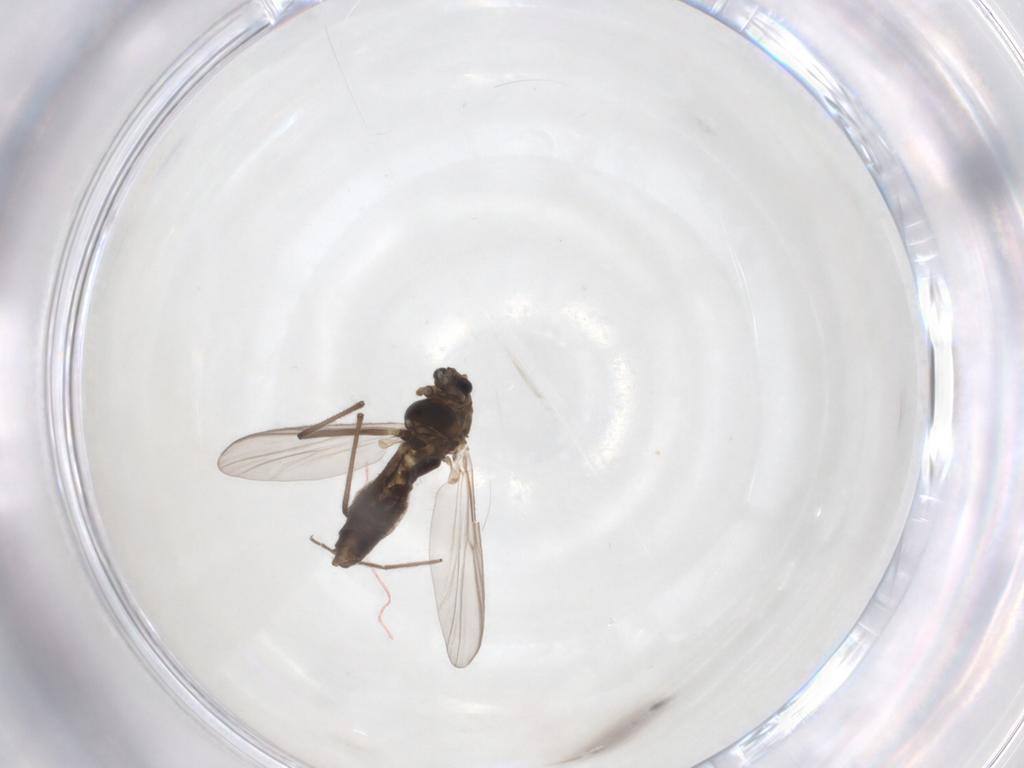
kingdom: Animalia
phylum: Arthropoda
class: Insecta
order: Diptera
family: Chironomidae
